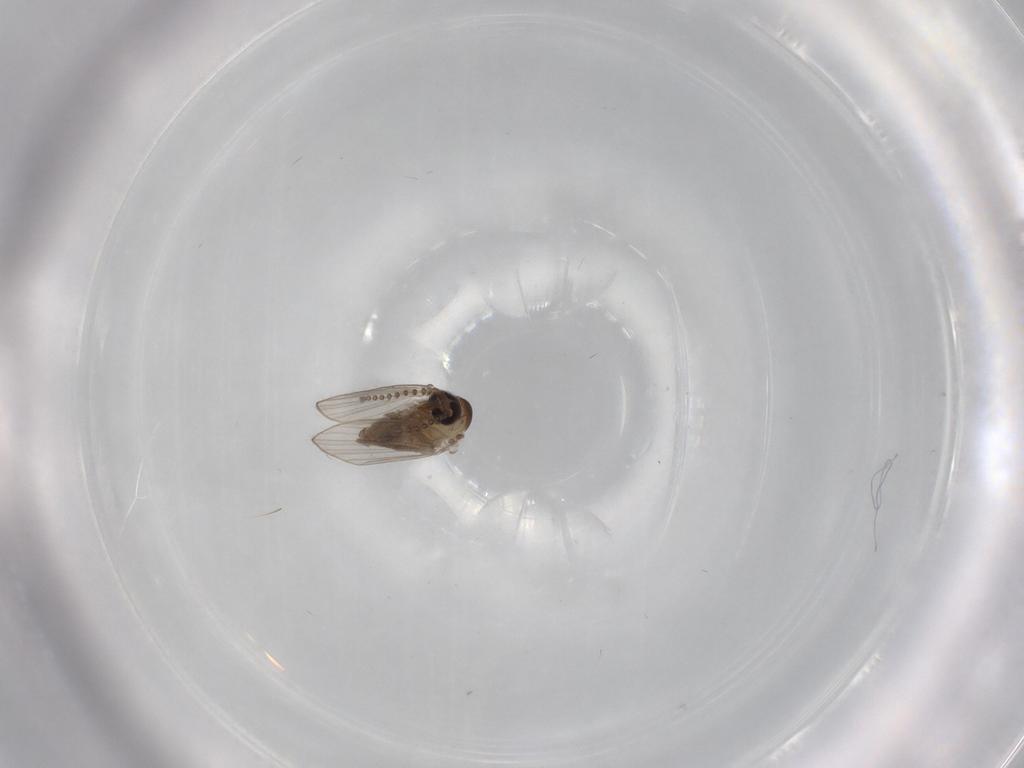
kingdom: Animalia
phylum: Arthropoda
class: Insecta
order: Diptera
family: Psychodidae
